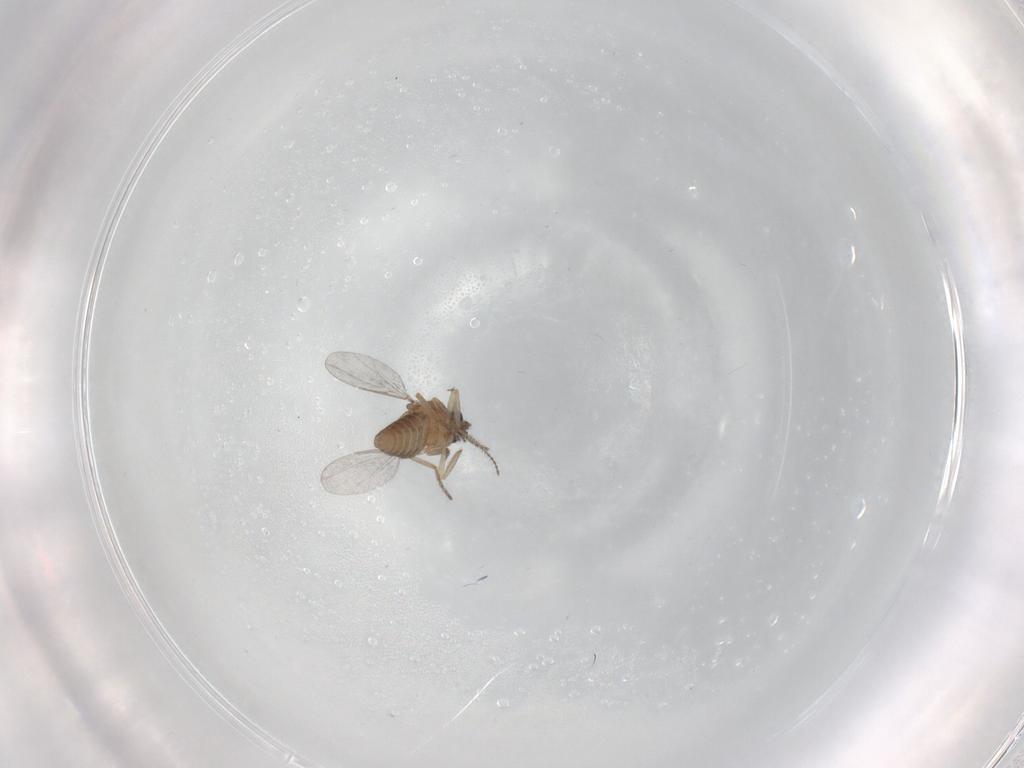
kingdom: Animalia
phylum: Arthropoda
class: Insecta
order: Diptera
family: Ceratopogonidae
